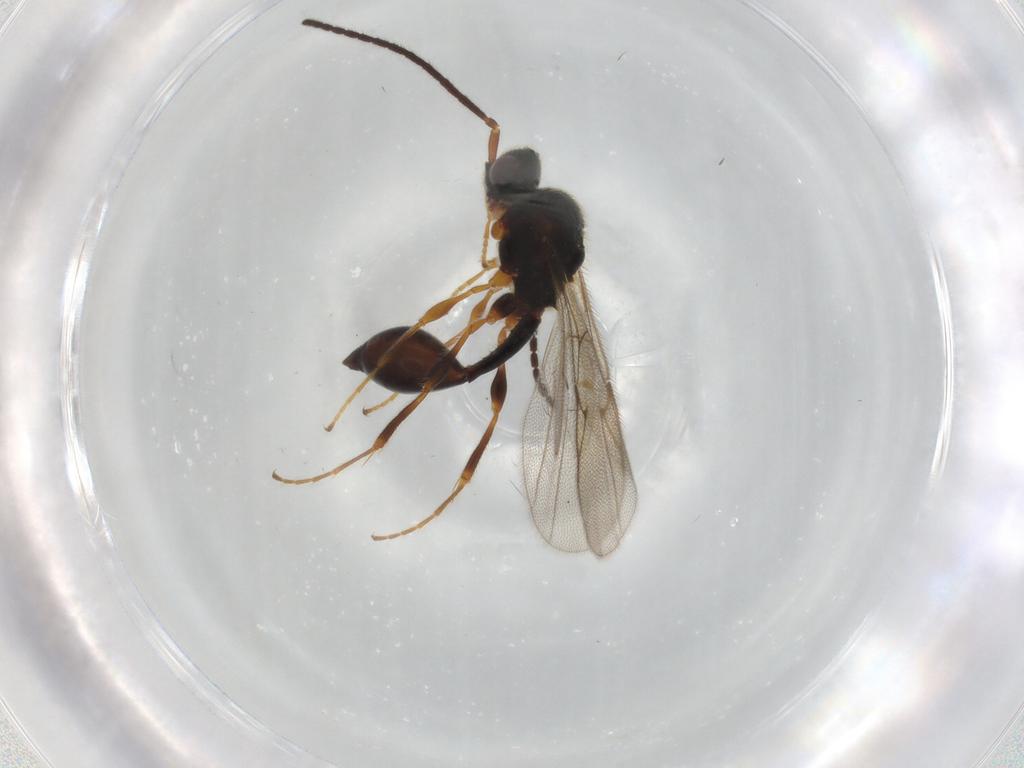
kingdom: Animalia
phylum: Arthropoda
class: Insecta
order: Hymenoptera
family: Diapriidae
